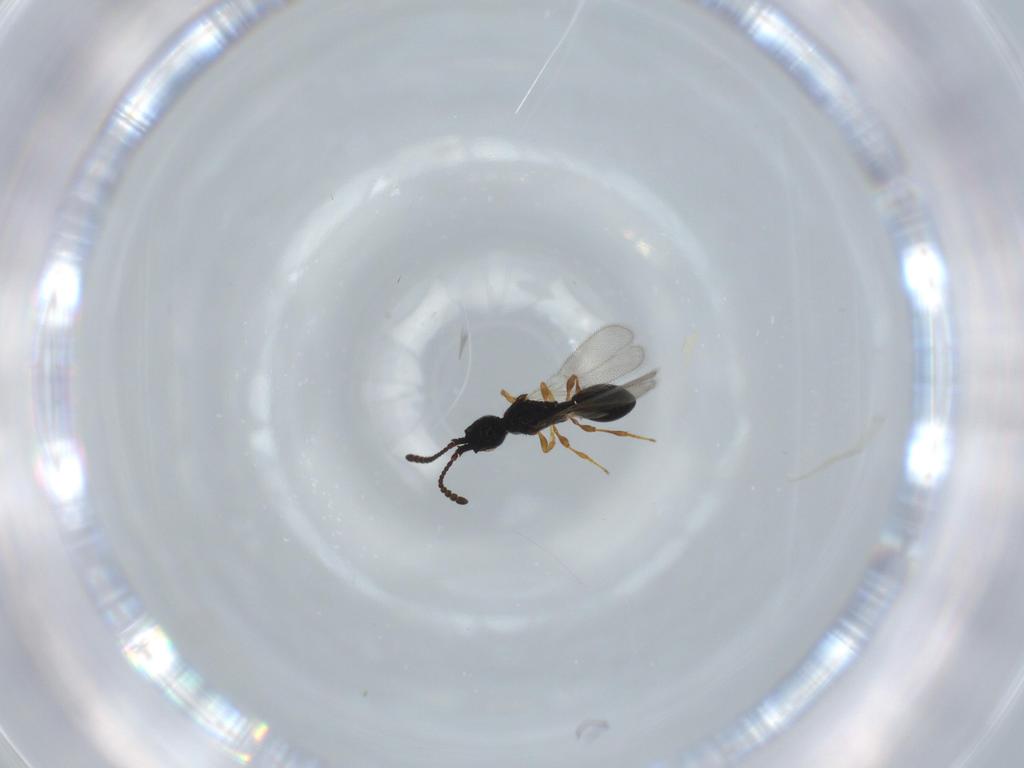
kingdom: Animalia
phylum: Arthropoda
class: Insecta
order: Hymenoptera
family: Diapriidae
